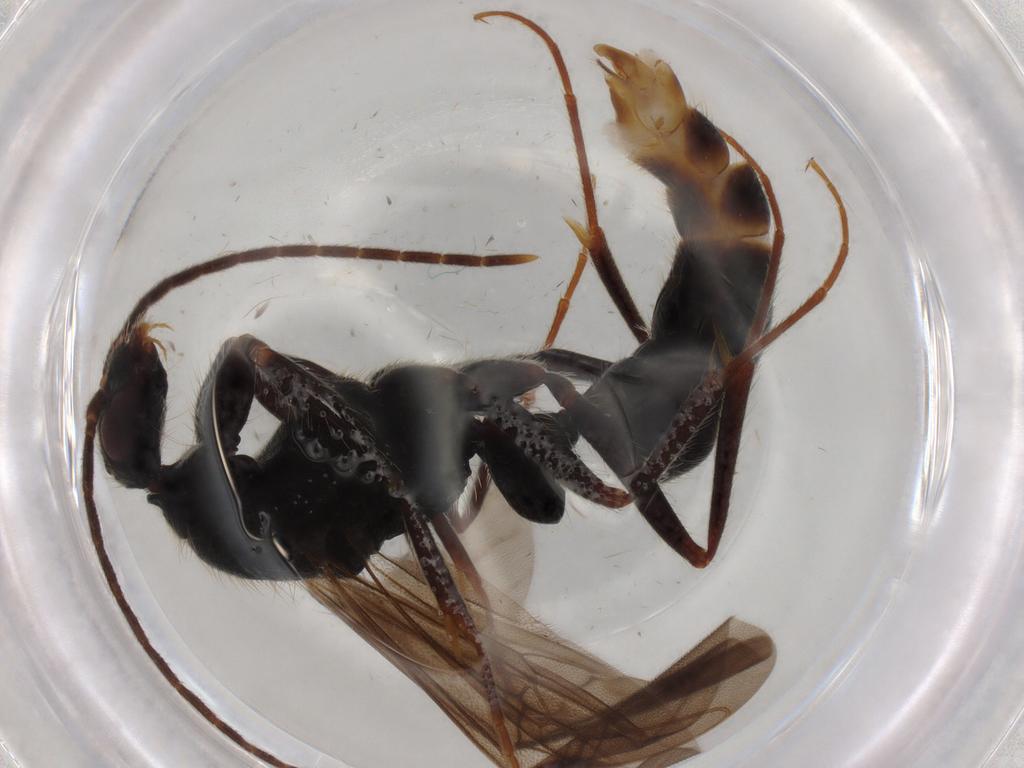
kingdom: Animalia
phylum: Arthropoda
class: Insecta
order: Hymenoptera
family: Formicidae
